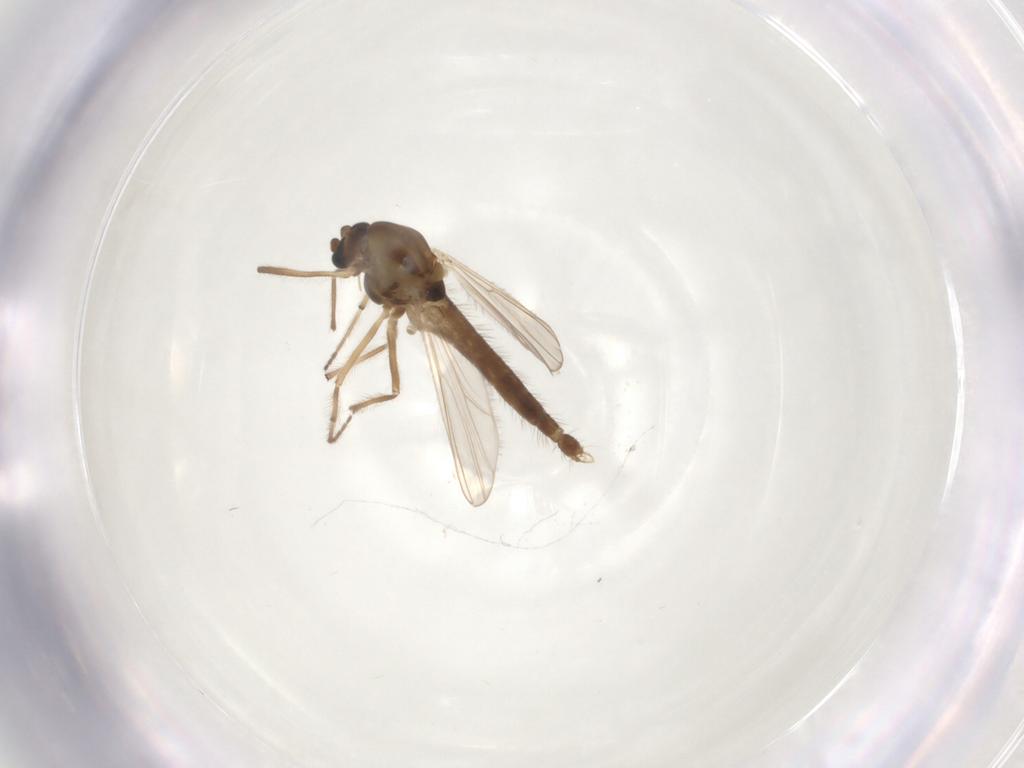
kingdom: Animalia
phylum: Arthropoda
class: Insecta
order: Diptera
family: Chironomidae
